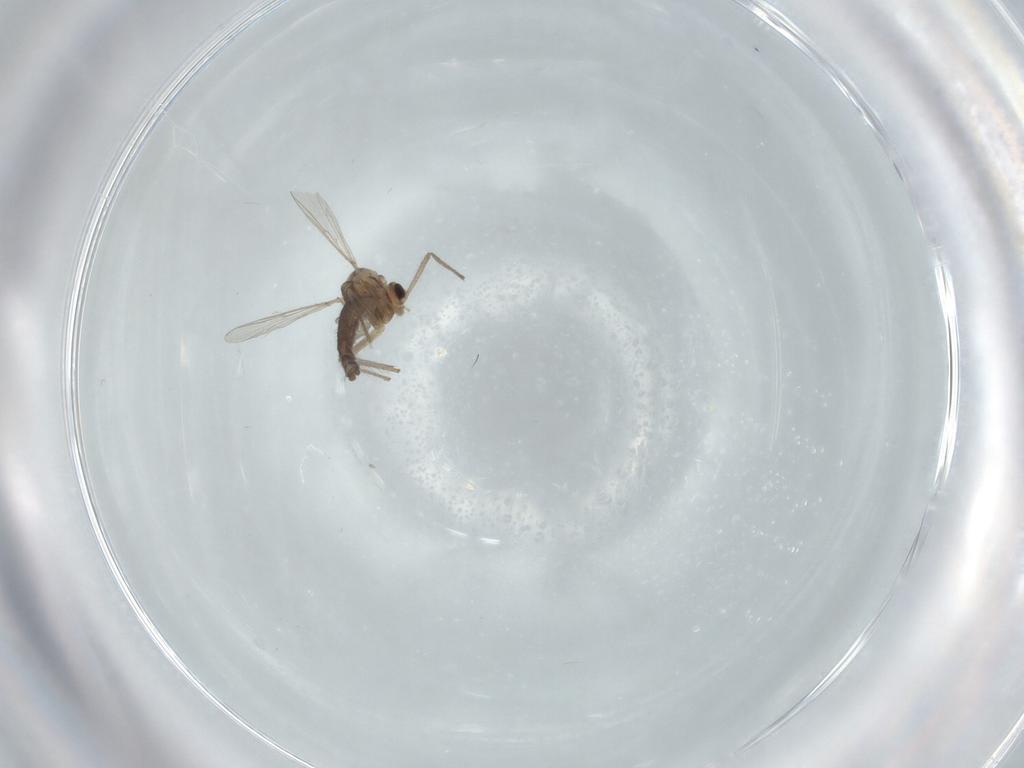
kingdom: Animalia
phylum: Arthropoda
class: Insecta
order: Diptera
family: Chironomidae
